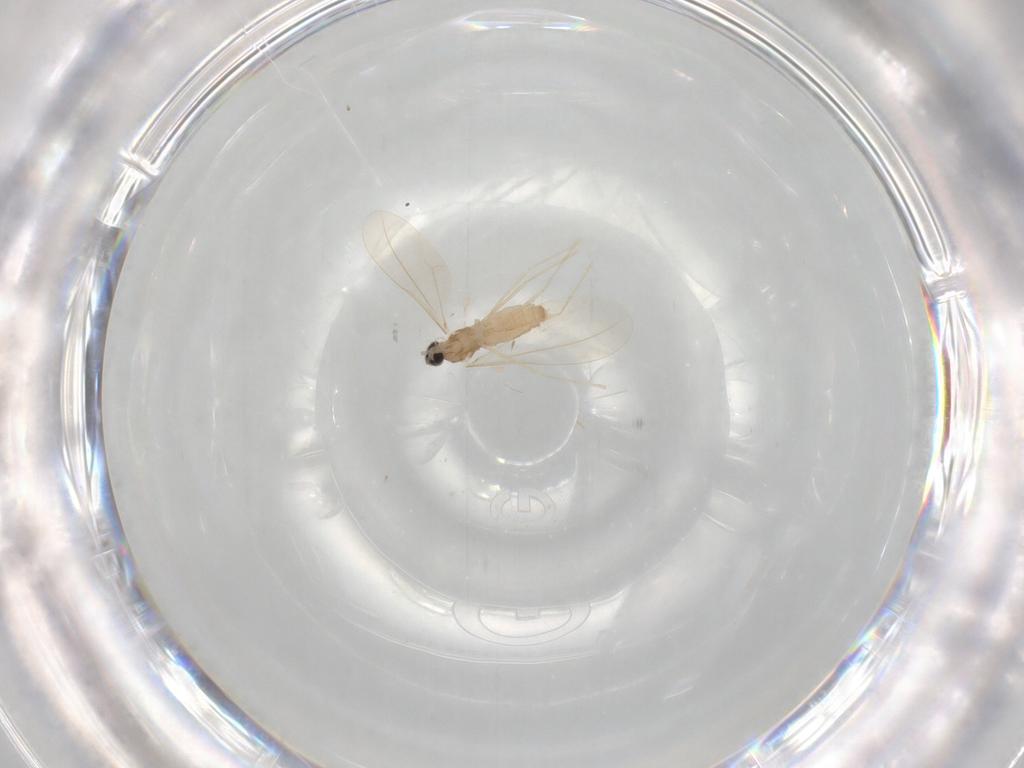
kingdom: Animalia
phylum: Arthropoda
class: Insecta
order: Diptera
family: Cecidomyiidae
